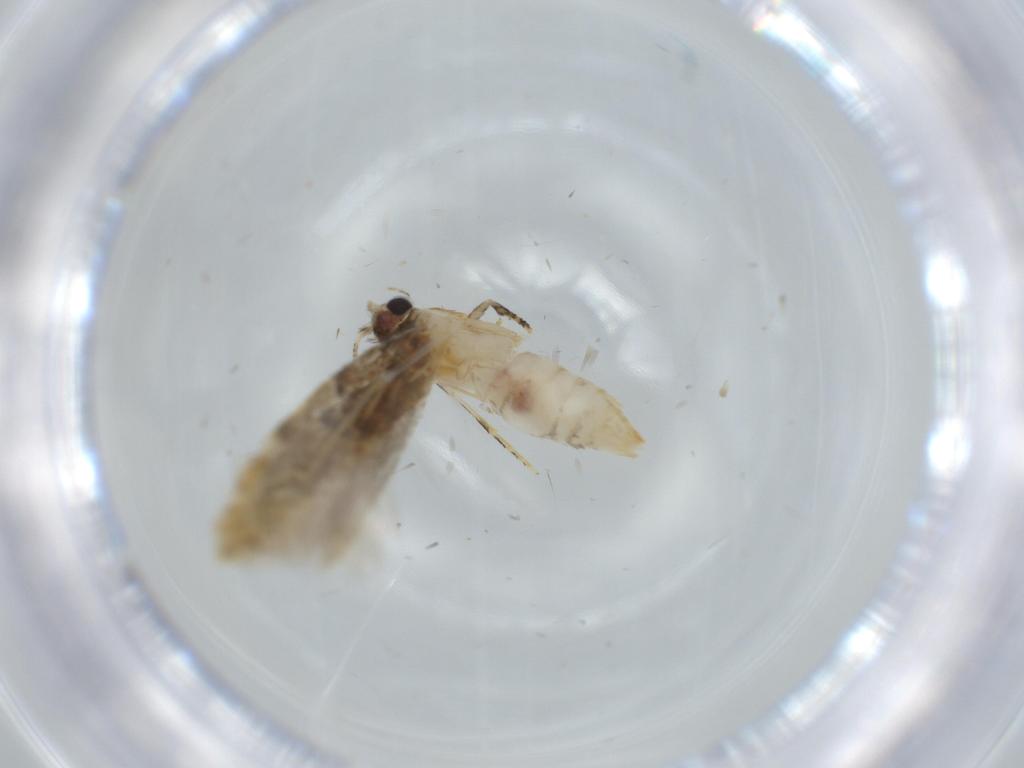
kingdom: Animalia
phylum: Arthropoda
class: Insecta
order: Lepidoptera
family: Tineidae
